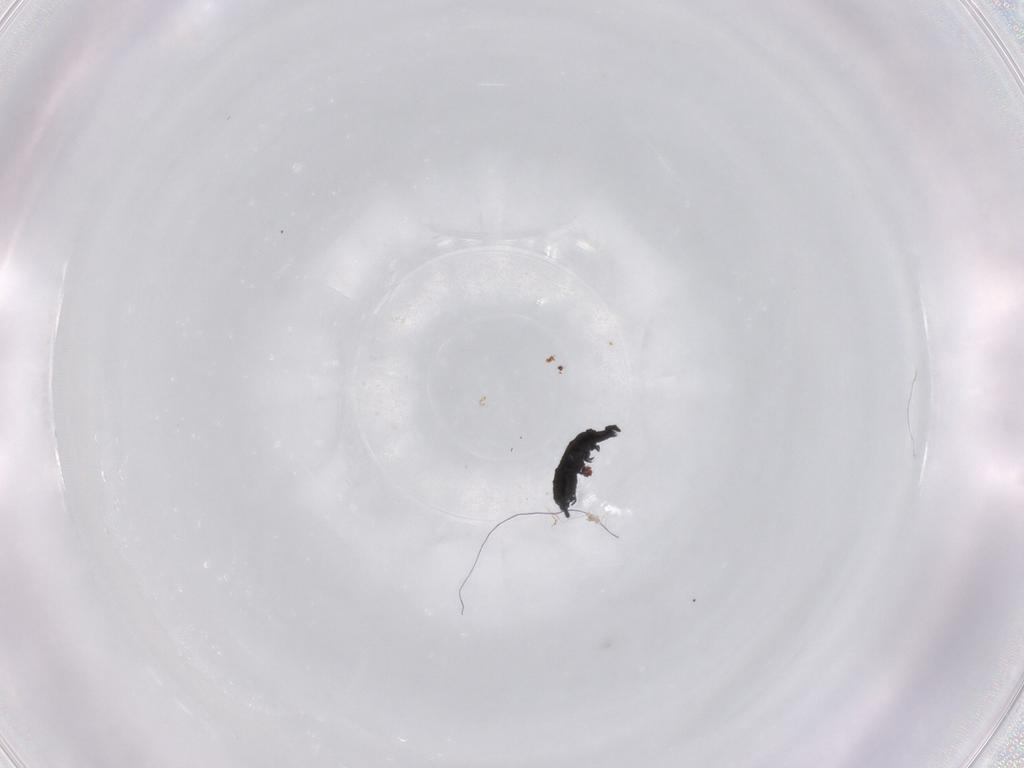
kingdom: Animalia
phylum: Arthropoda
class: Collembola
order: Poduromorpha
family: Hypogastruridae
